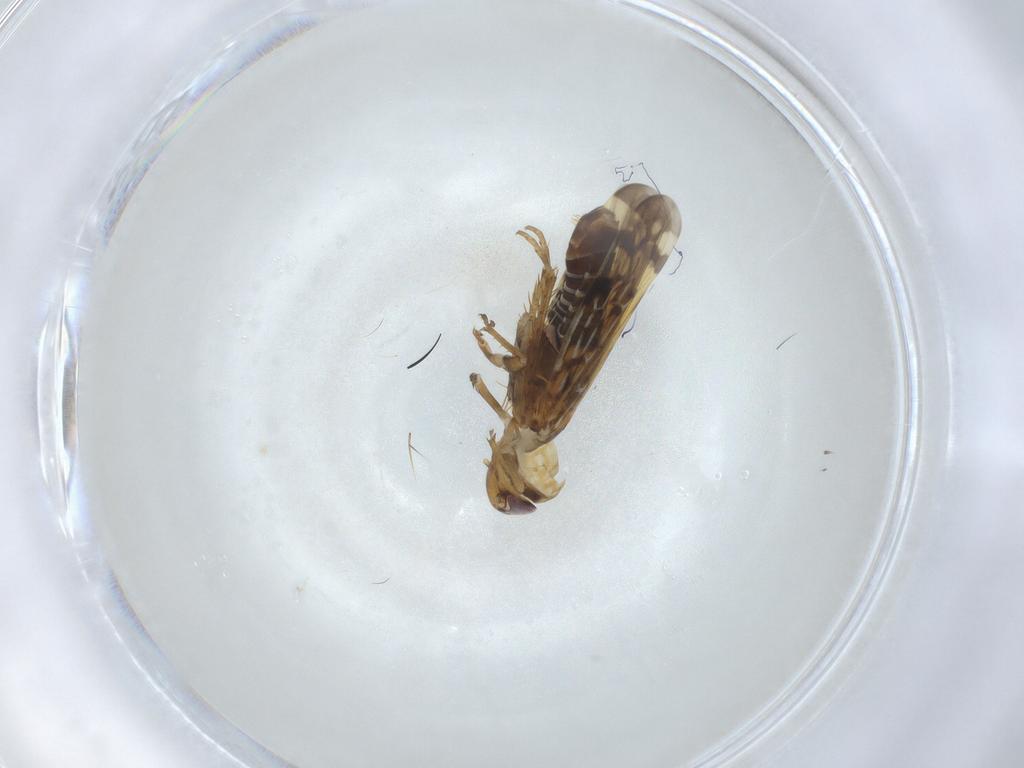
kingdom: Animalia
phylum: Arthropoda
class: Insecta
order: Hemiptera
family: Cicadellidae
